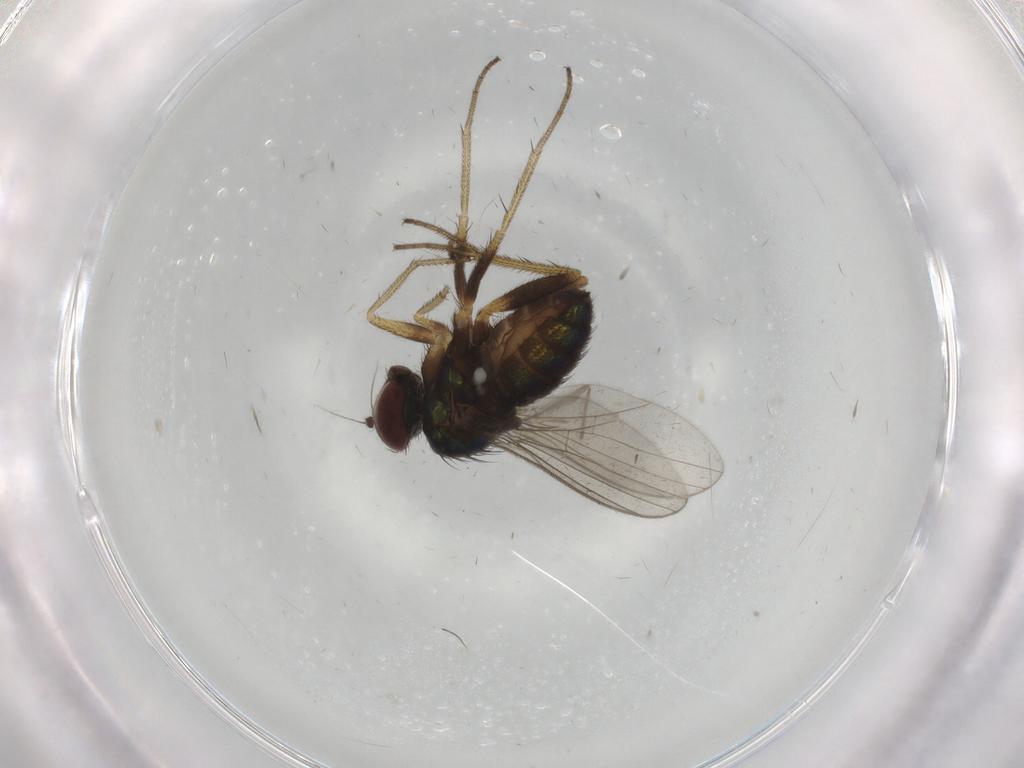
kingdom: Animalia
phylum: Arthropoda
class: Insecta
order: Diptera
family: Dolichopodidae
